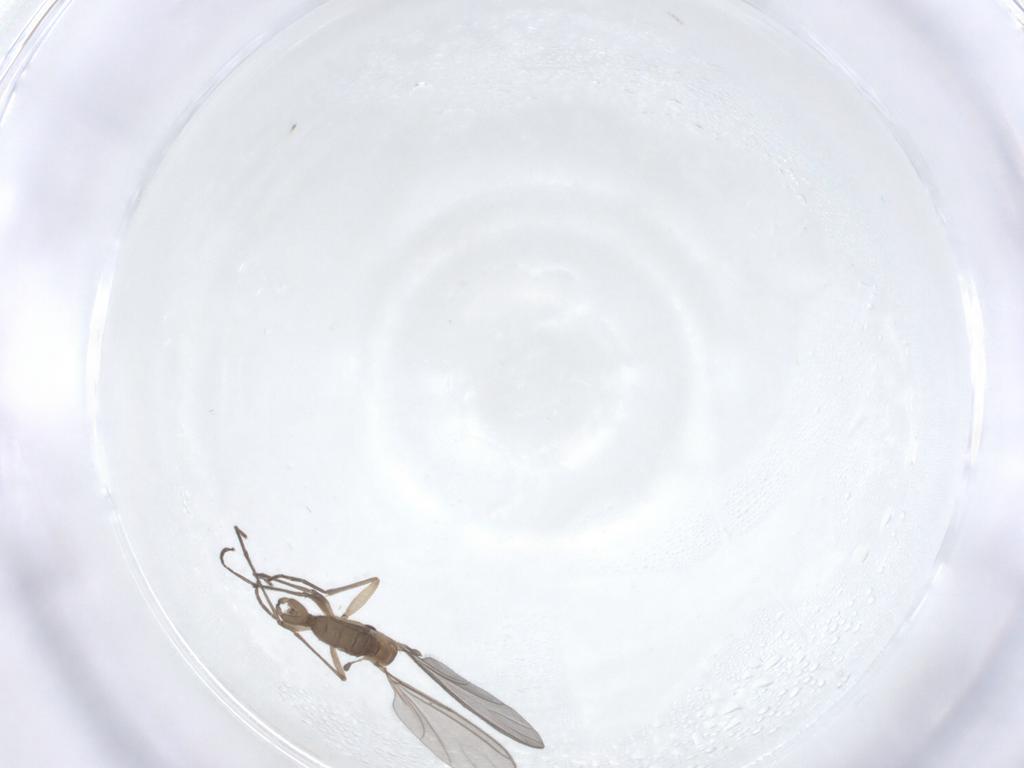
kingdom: Animalia
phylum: Arthropoda
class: Insecta
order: Diptera
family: Sciaridae
